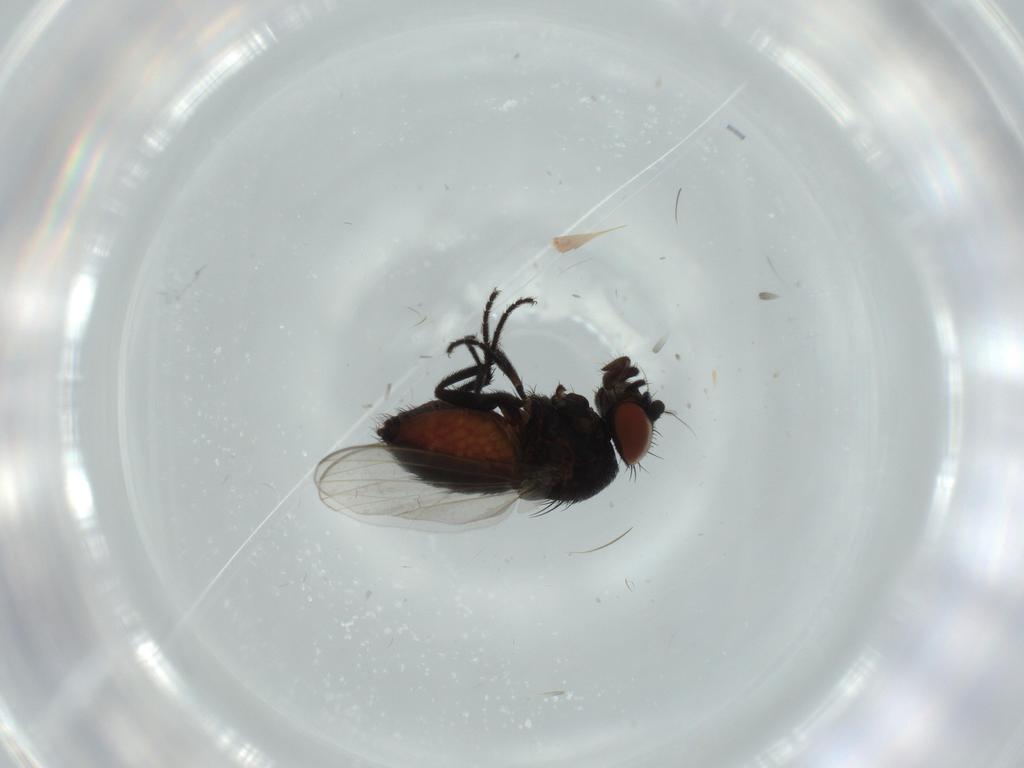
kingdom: Animalia
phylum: Arthropoda
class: Insecta
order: Diptera
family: Milichiidae
